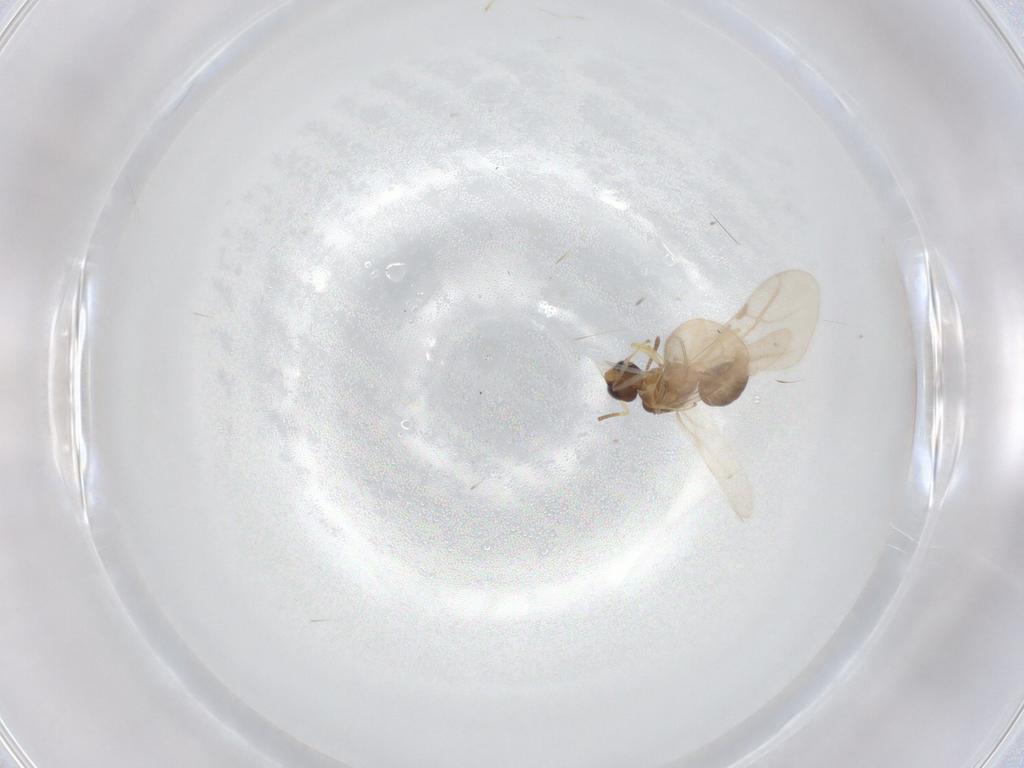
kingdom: Animalia
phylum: Arthropoda
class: Insecta
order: Hymenoptera
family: Formicidae
